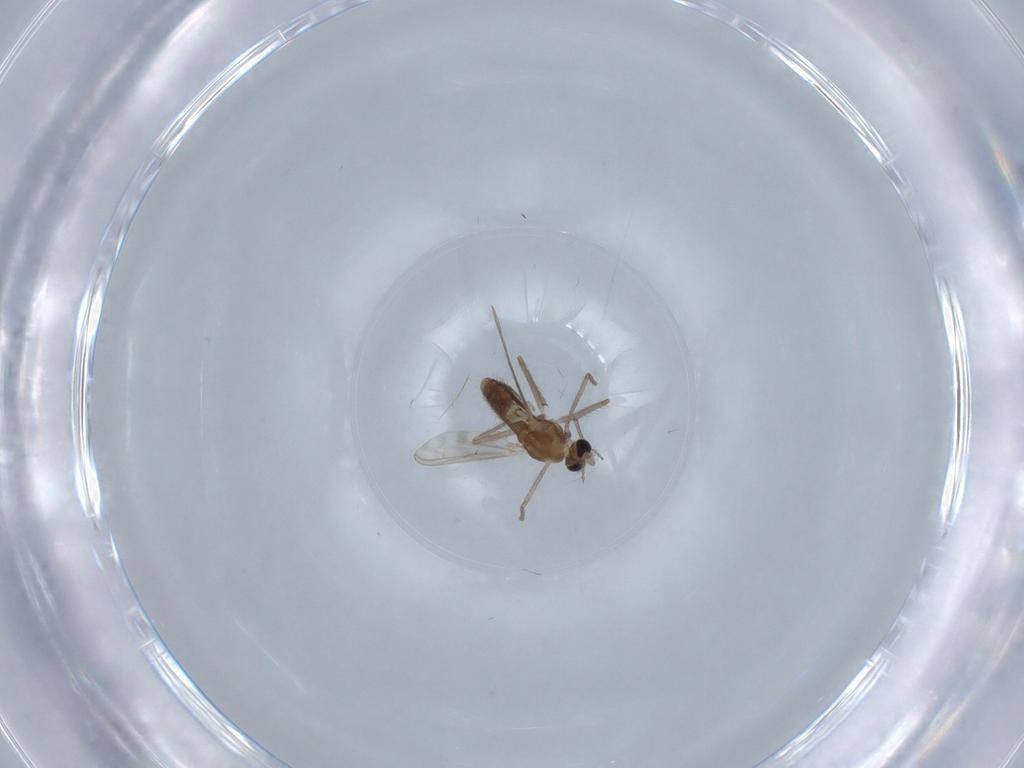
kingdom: Animalia
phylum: Arthropoda
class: Insecta
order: Diptera
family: Chironomidae
